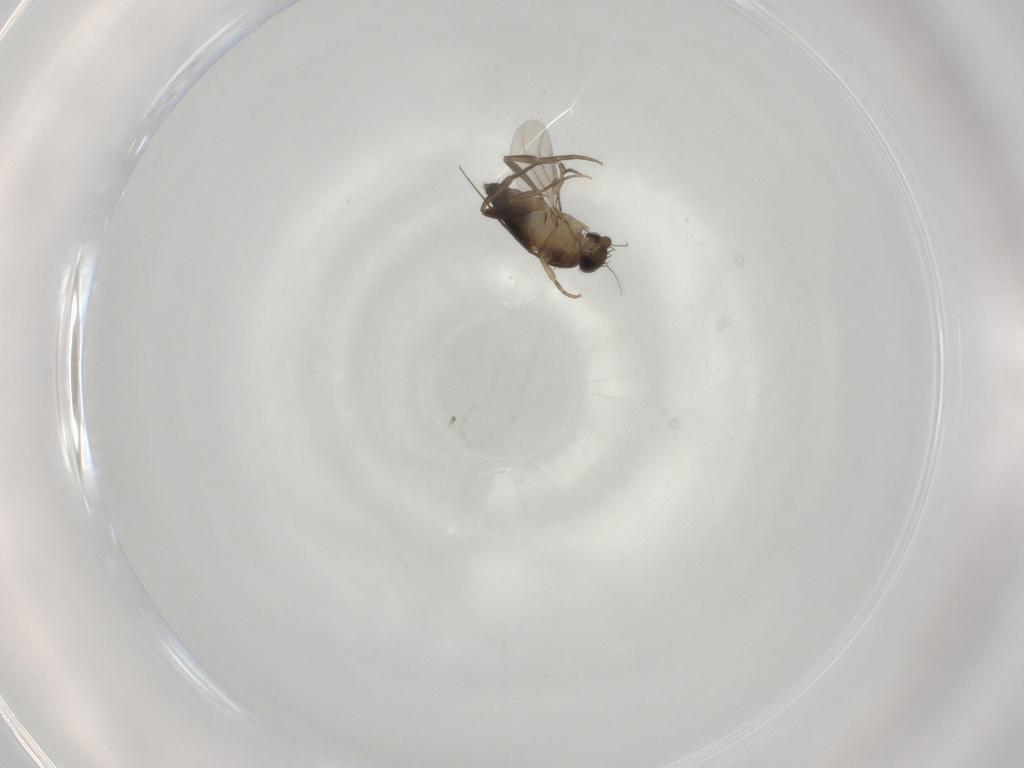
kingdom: Animalia
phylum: Arthropoda
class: Insecta
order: Diptera
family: Phoridae
